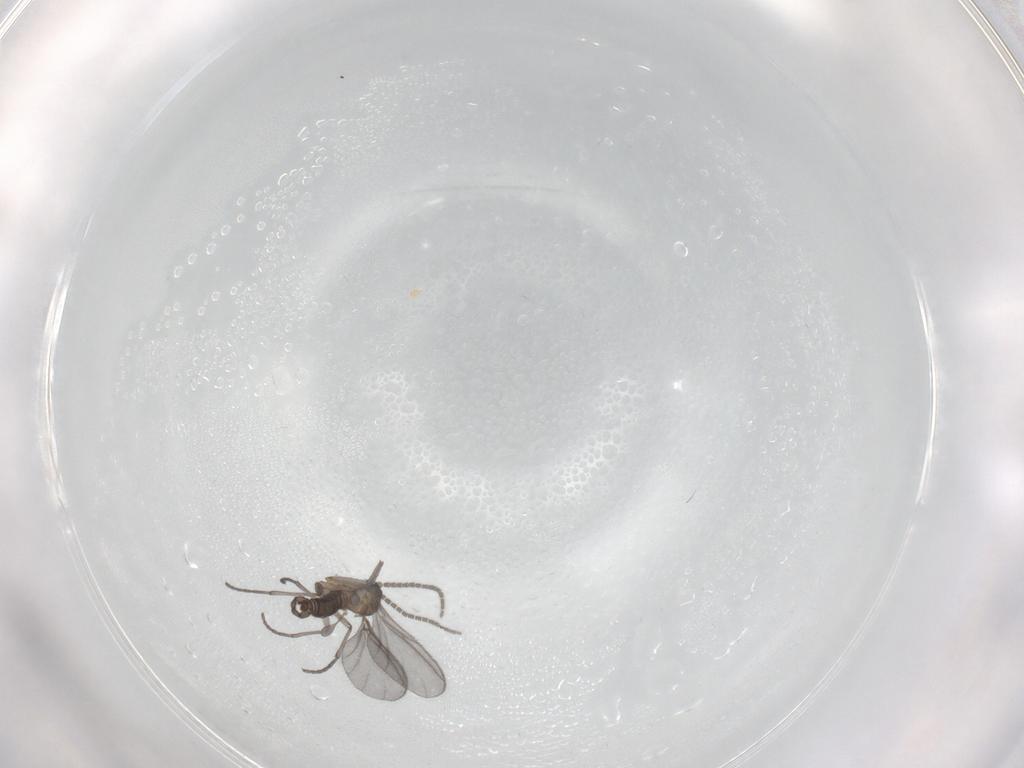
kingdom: Animalia
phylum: Arthropoda
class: Insecta
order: Diptera
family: Sciaridae
